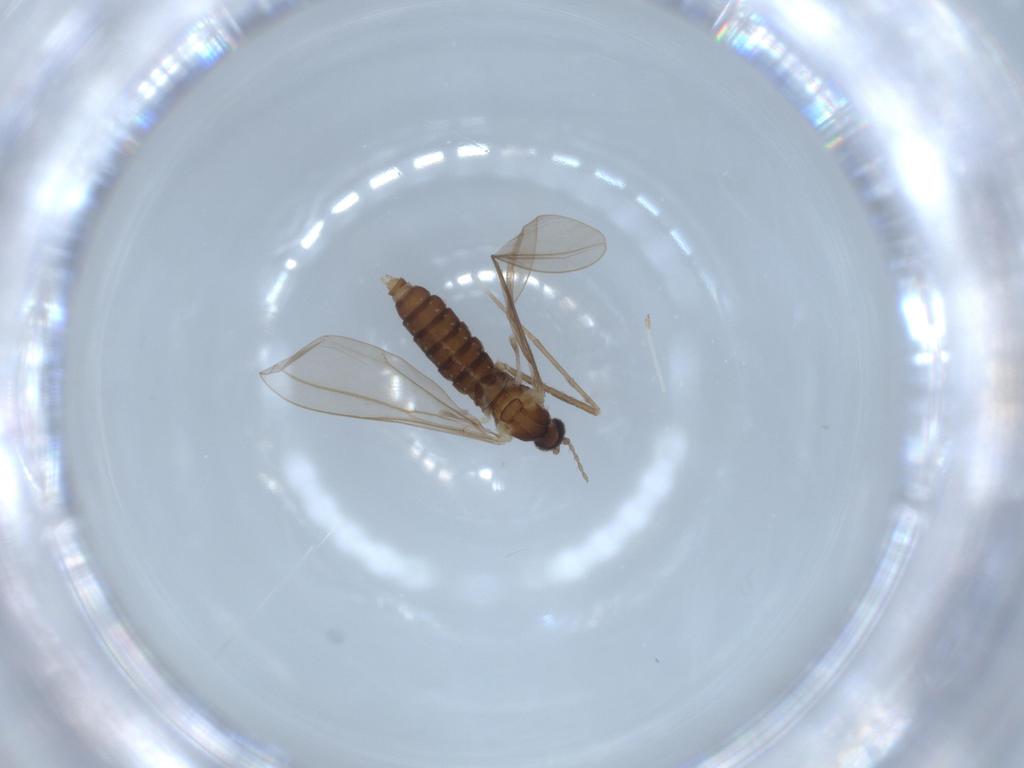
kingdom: Animalia
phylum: Arthropoda
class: Insecta
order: Diptera
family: Cecidomyiidae
